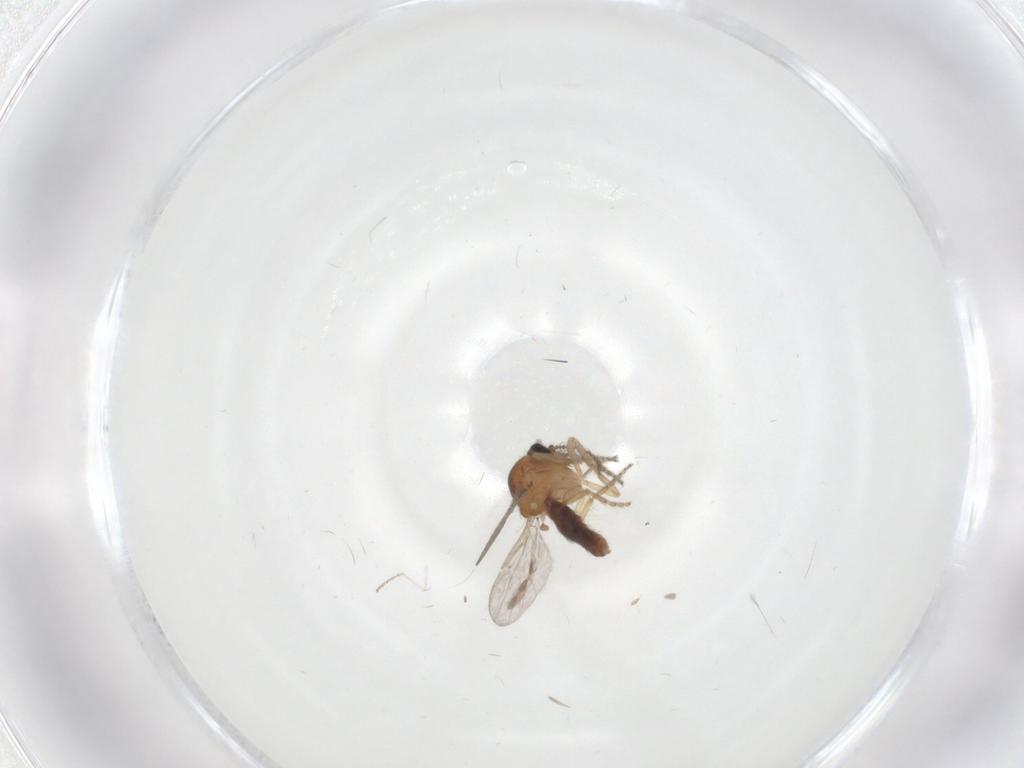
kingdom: Animalia
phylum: Arthropoda
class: Insecta
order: Diptera
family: Ceratopogonidae
